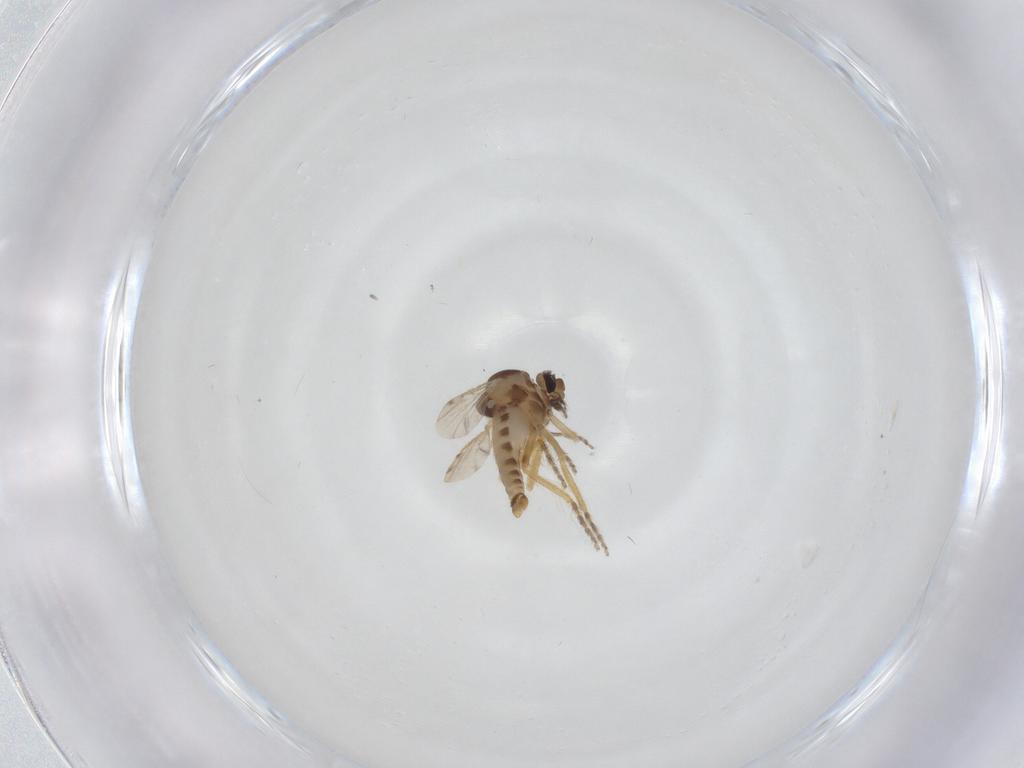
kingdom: Animalia
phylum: Arthropoda
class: Insecta
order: Diptera
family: Ceratopogonidae
